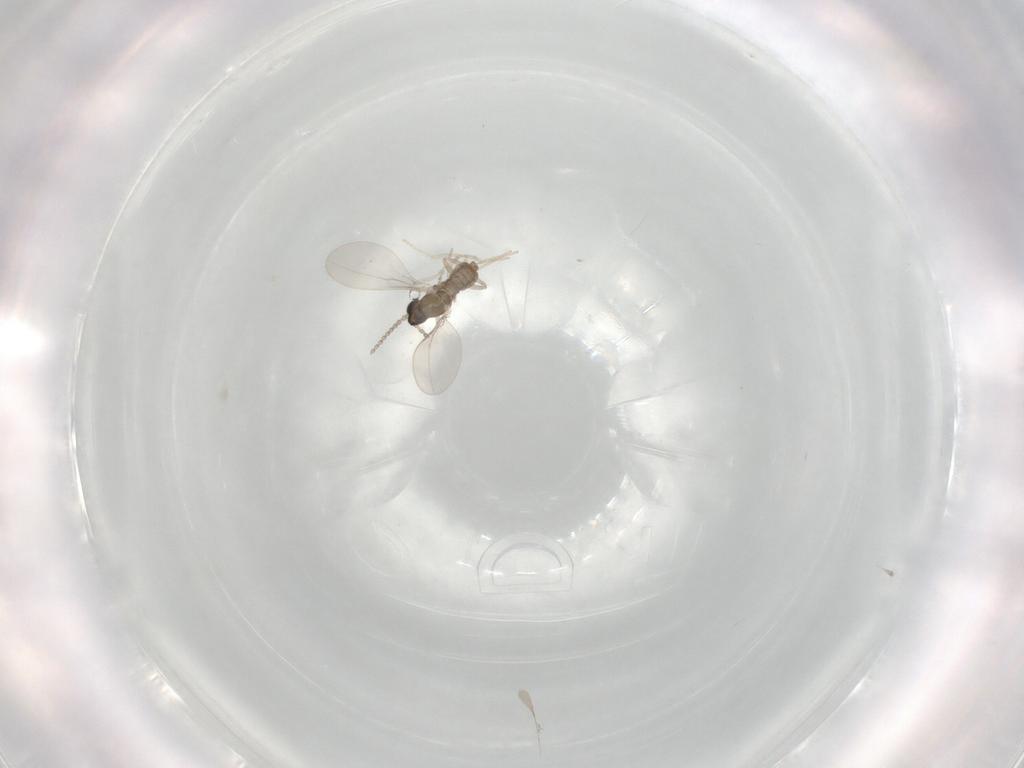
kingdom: Animalia
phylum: Arthropoda
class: Insecta
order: Diptera
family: Cecidomyiidae
